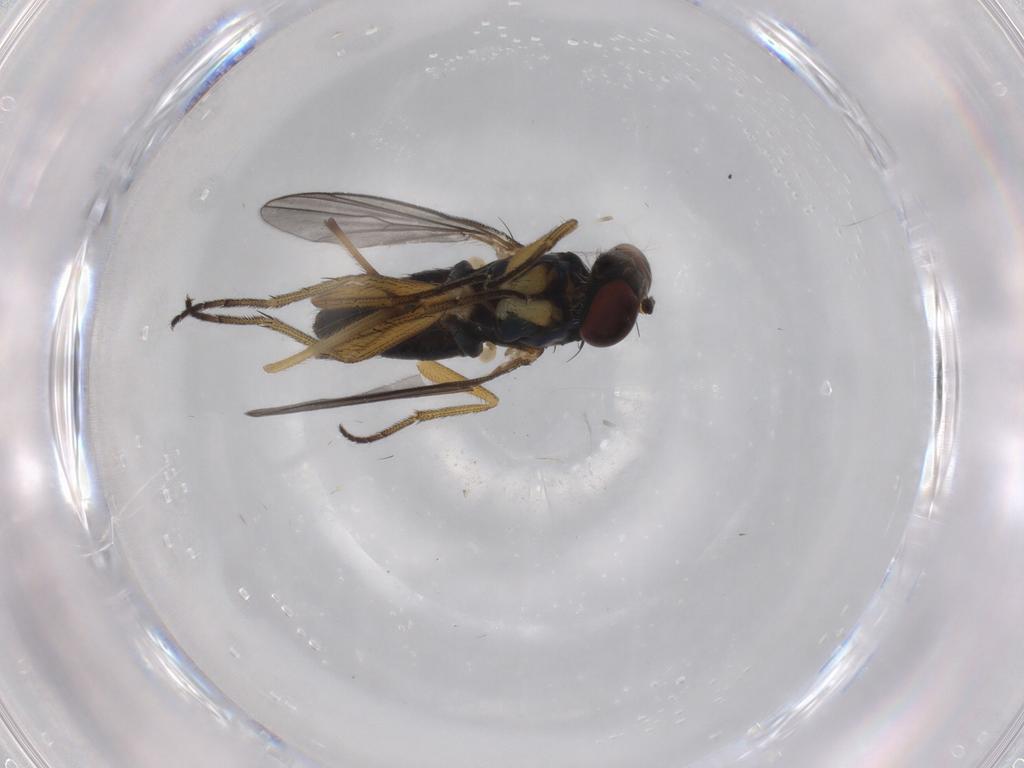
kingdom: Animalia
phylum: Arthropoda
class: Insecta
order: Diptera
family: Dolichopodidae
